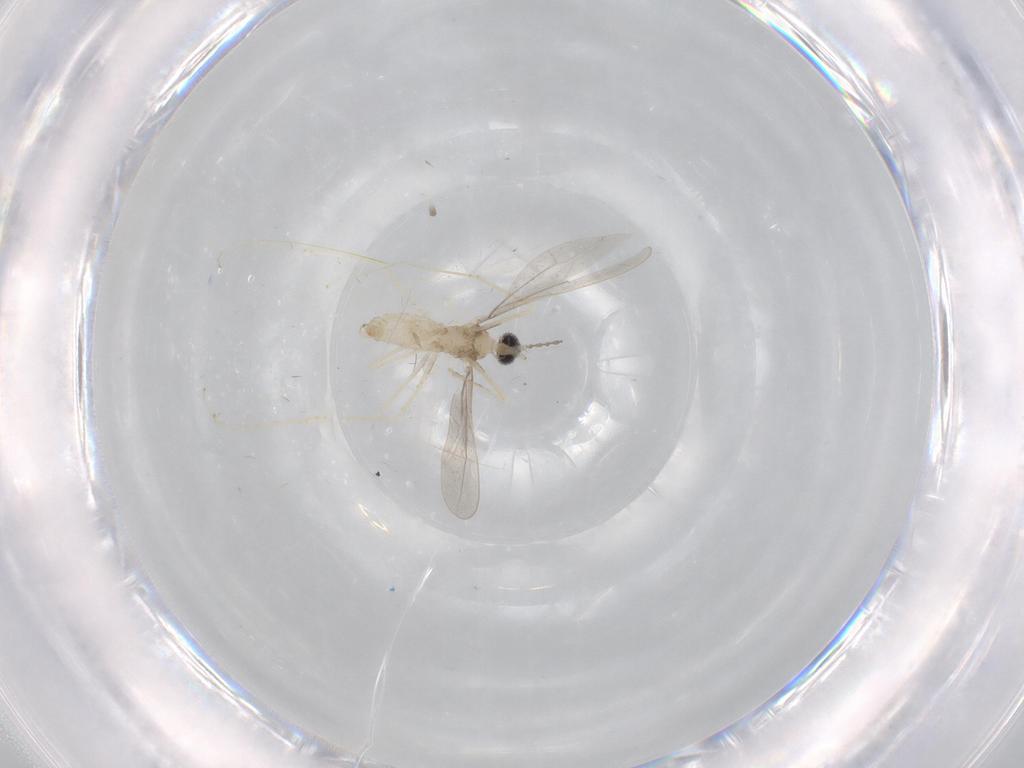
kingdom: Animalia
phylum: Arthropoda
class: Insecta
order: Diptera
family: Cecidomyiidae
